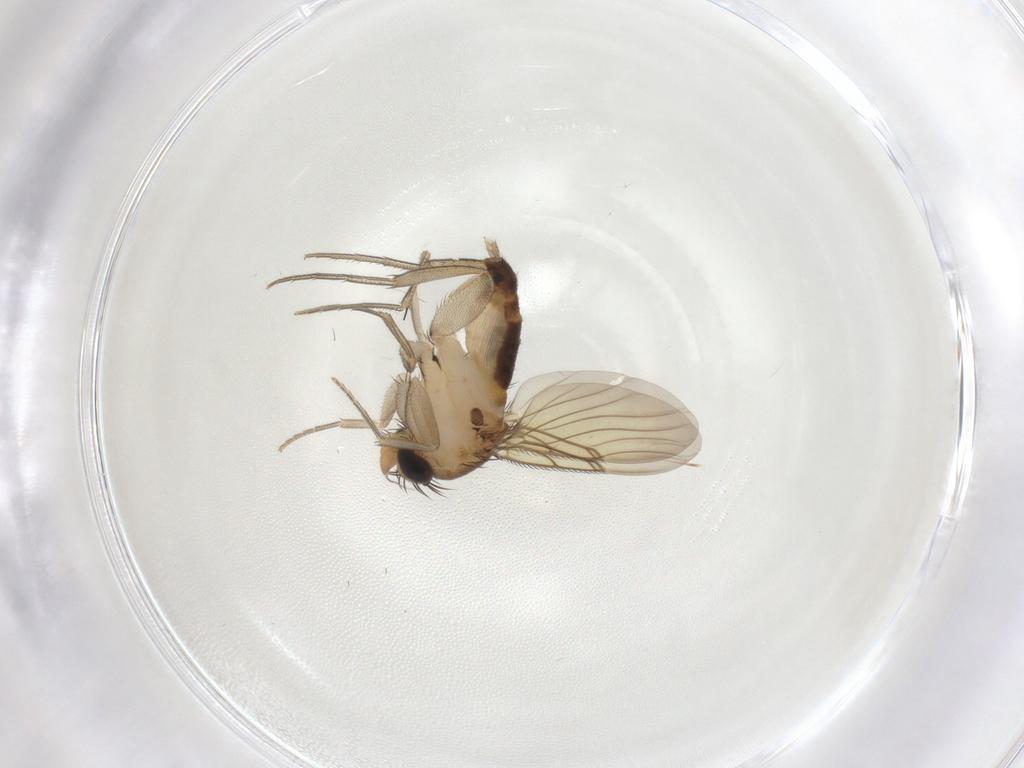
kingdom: Animalia
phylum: Arthropoda
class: Insecta
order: Diptera
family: Phoridae
